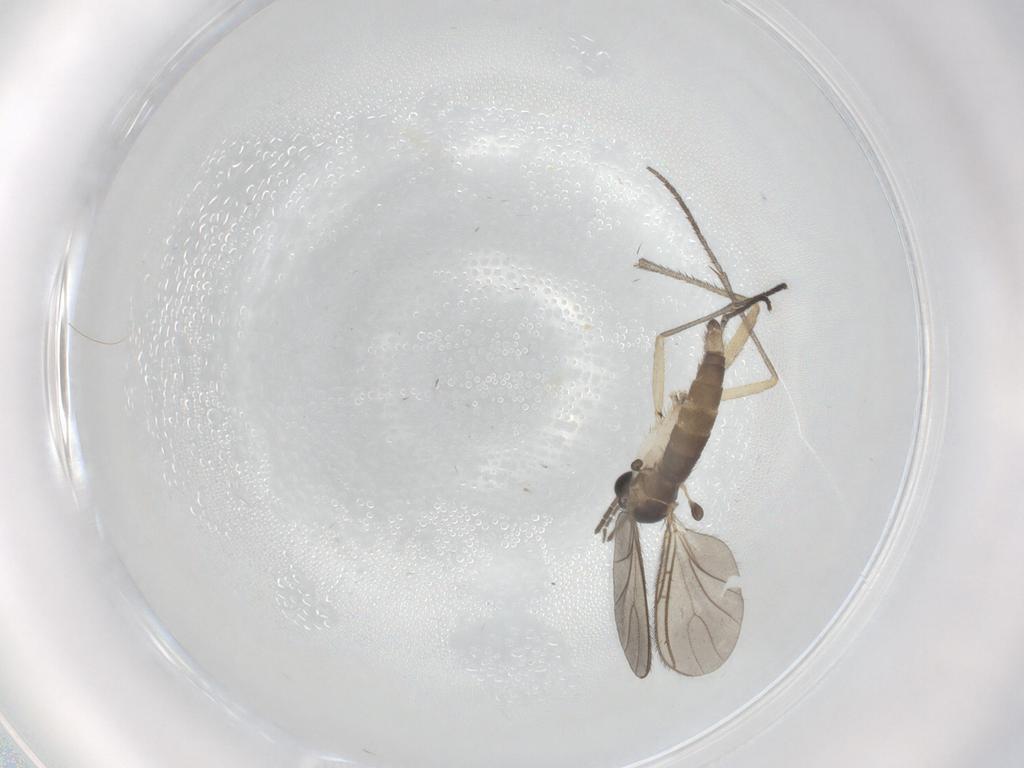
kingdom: Animalia
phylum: Arthropoda
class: Insecta
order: Diptera
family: Sciaridae
